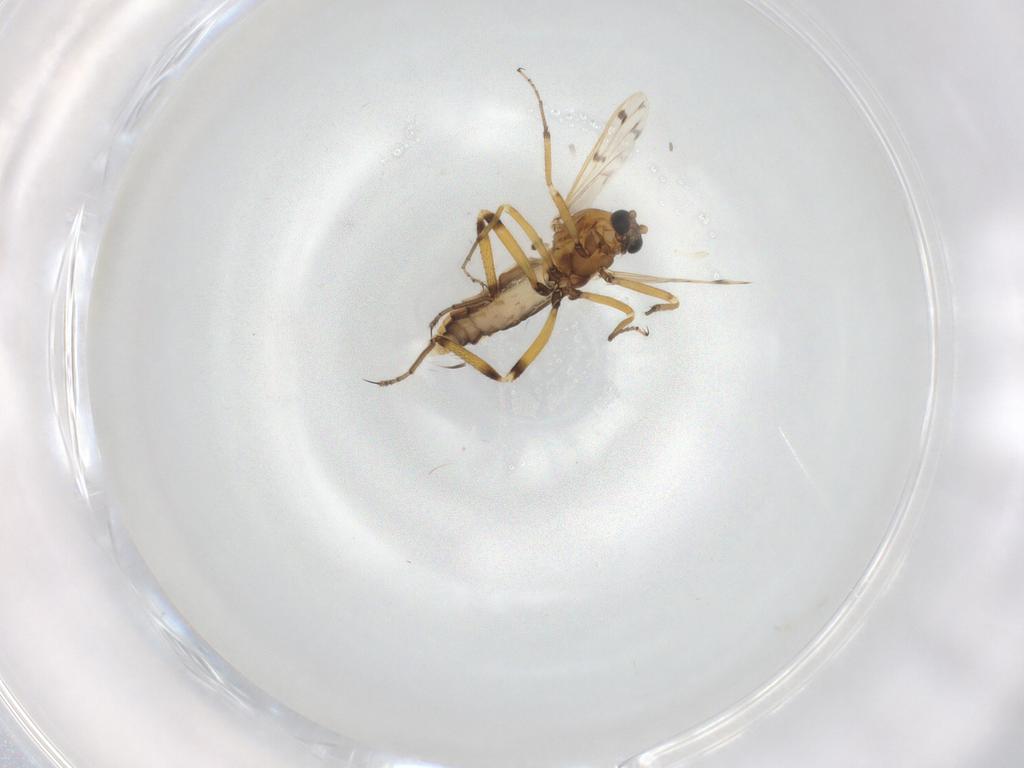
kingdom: Animalia
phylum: Arthropoda
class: Insecta
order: Diptera
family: Ceratopogonidae
